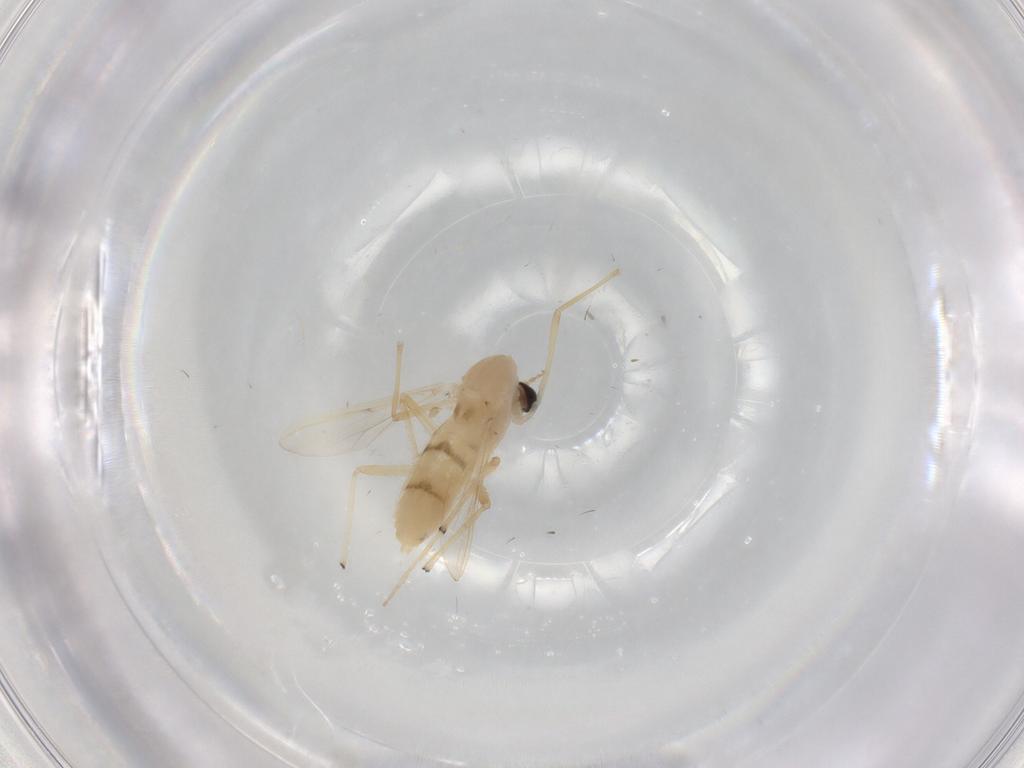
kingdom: Animalia
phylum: Arthropoda
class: Insecta
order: Diptera
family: Chironomidae
